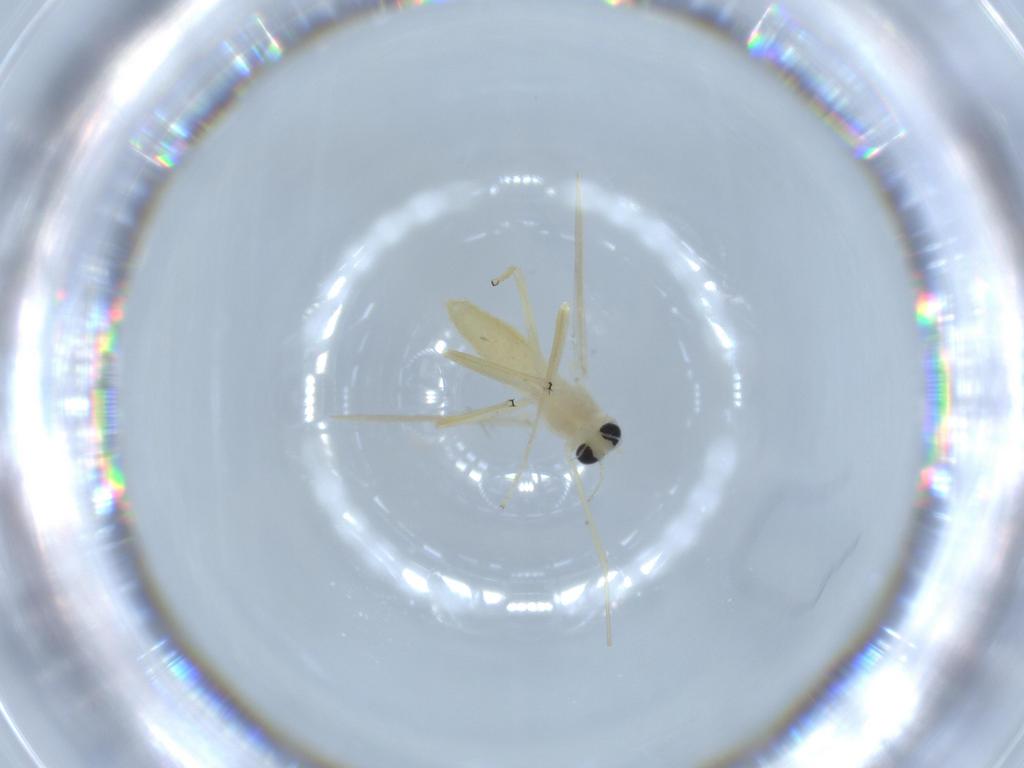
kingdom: Animalia
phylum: Arthropoda
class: Insecta
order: Diptera
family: Chironomidae
